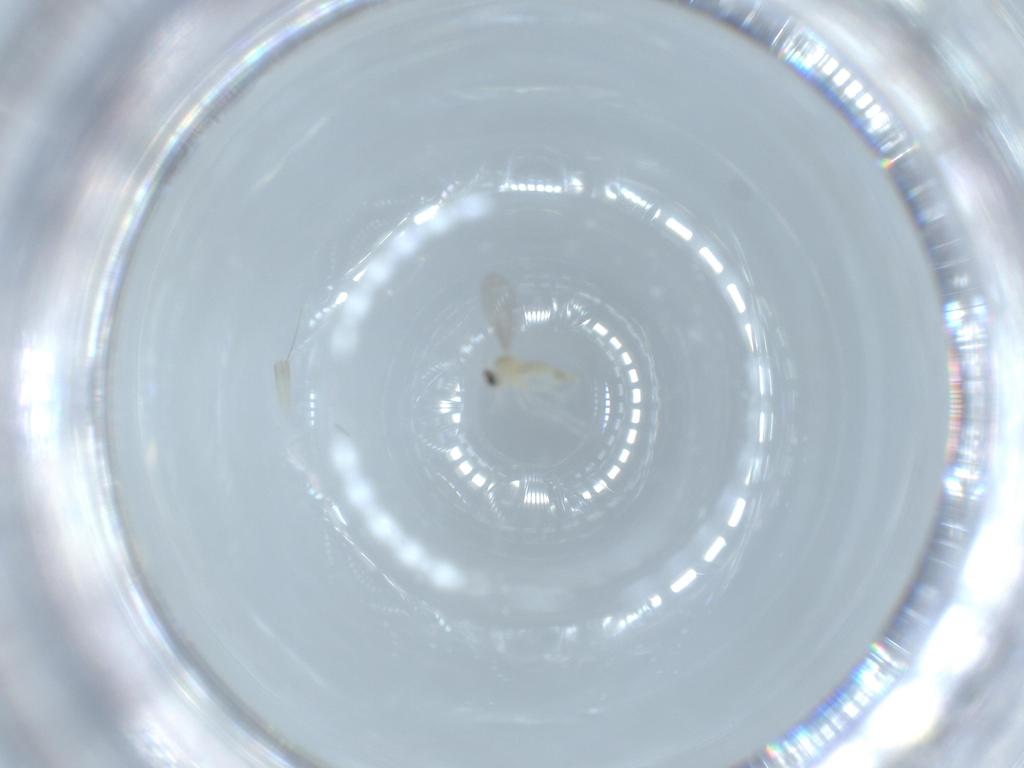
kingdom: Animalia
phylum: Arthropoda
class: Insecta
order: Diptera
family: Cecidomyiidae
